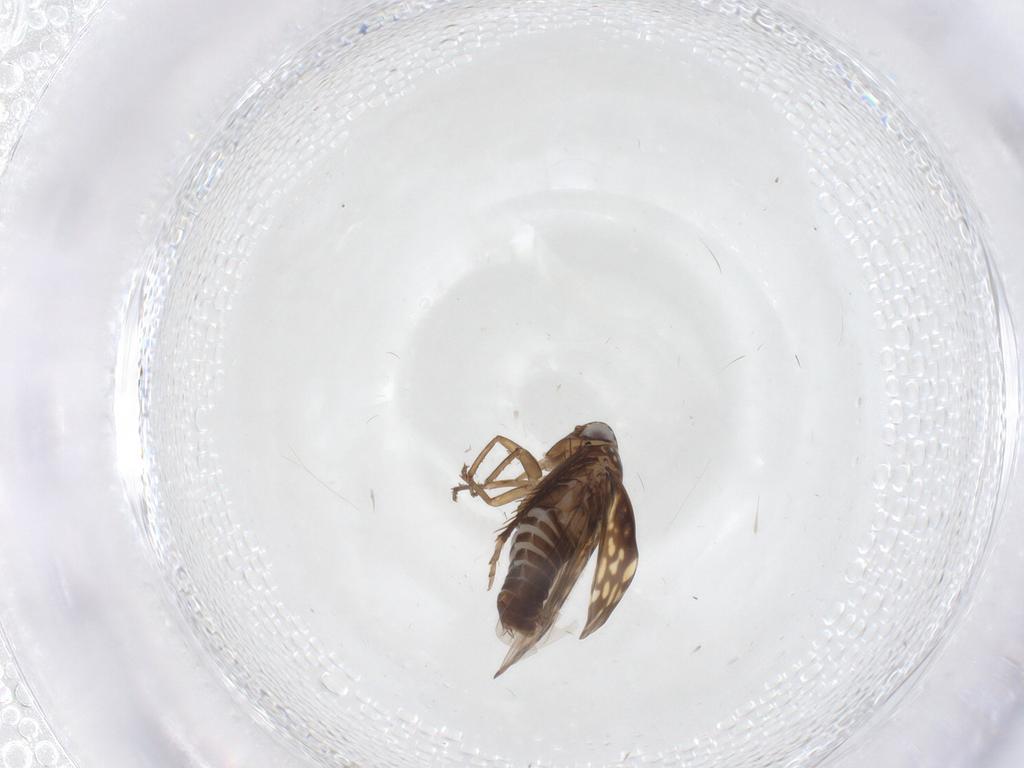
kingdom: Animalia
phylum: Arthropoda
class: Insecta
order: Hemiptera
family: Cicadellidae
